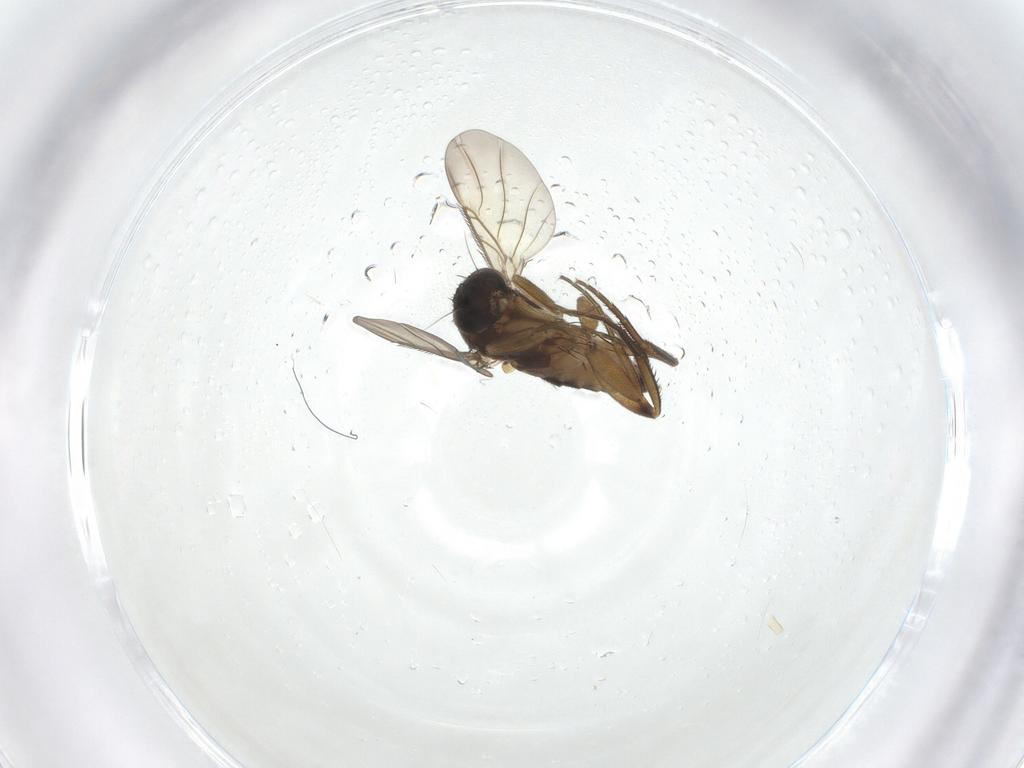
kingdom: Animalia
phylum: Arthropoda
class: Insecta
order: Diptera
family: Phoridae
